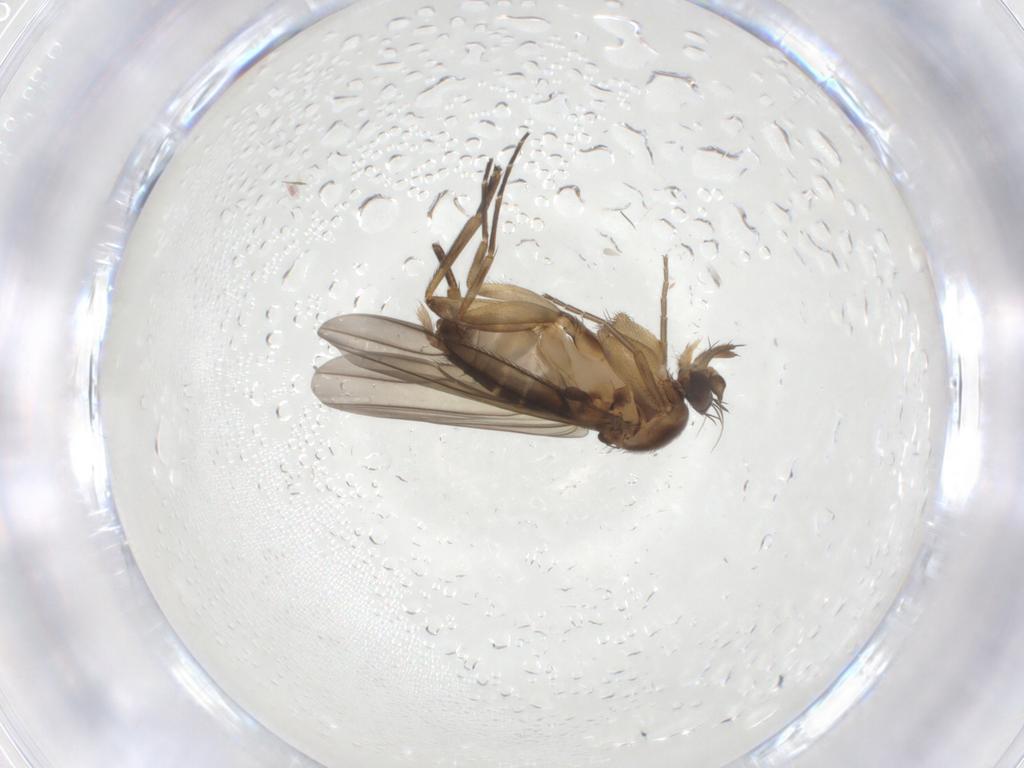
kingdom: Animalia
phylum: Arthropoda
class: Insecta
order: Diptera
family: Phoridae
